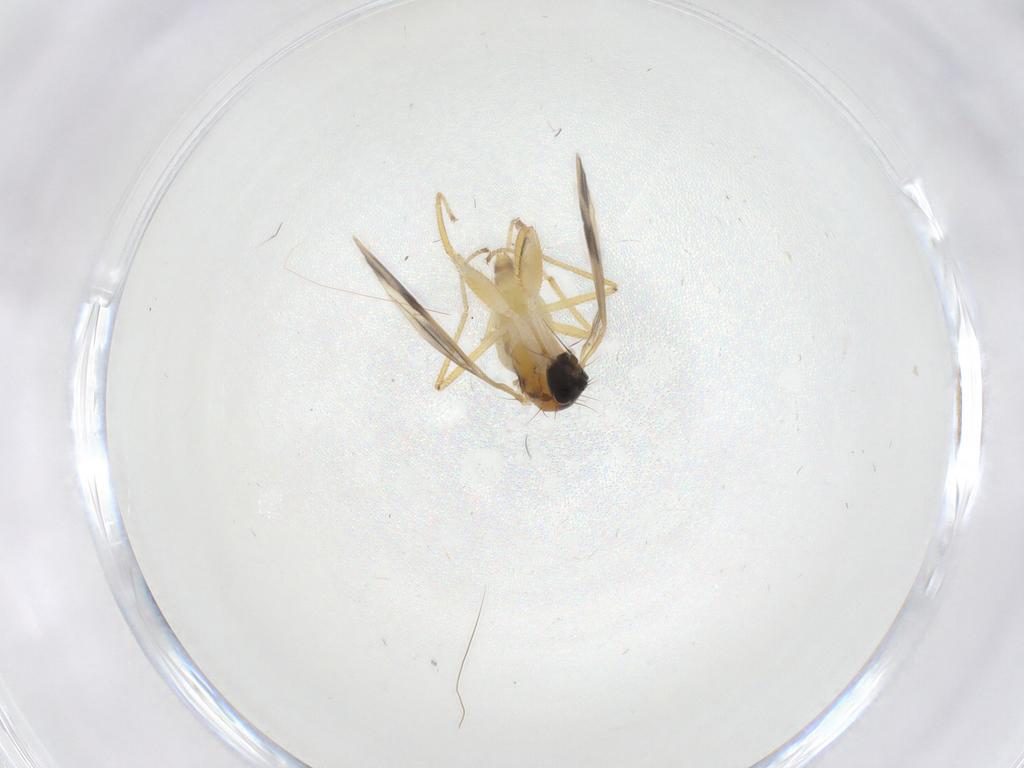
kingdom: Animalia
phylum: Arthropoda
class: Insecta
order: Diptera
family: Empididae
